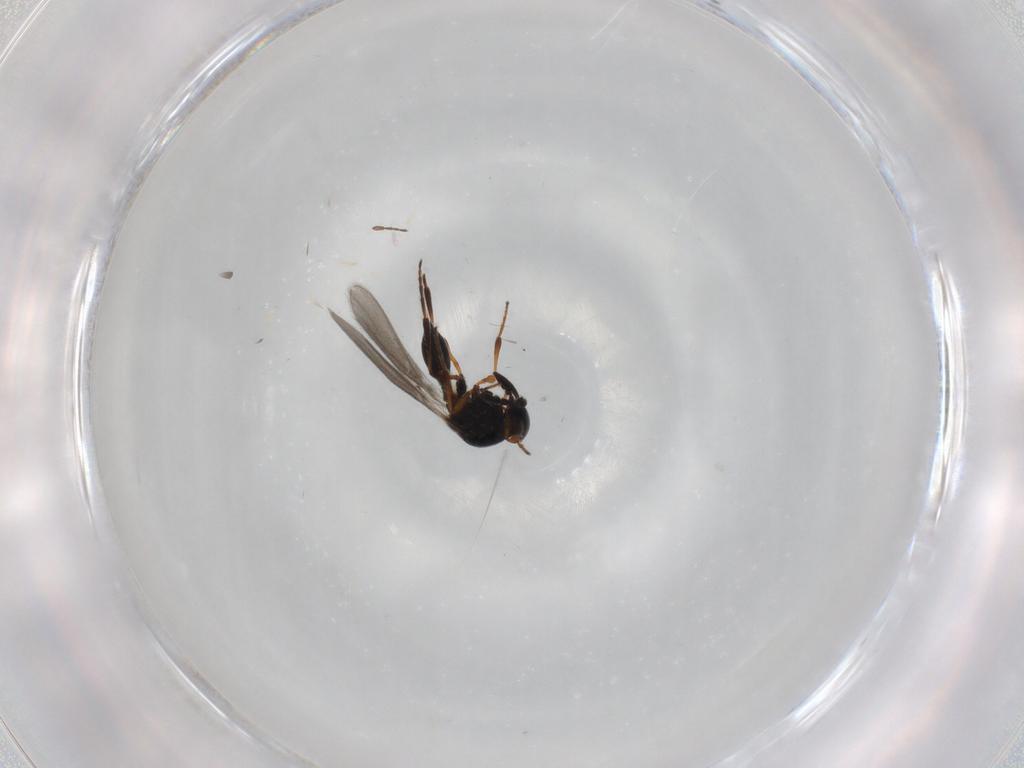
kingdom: Animalia
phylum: Arthropoda
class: Insecta
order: Hymenoptera
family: Platygastridae
